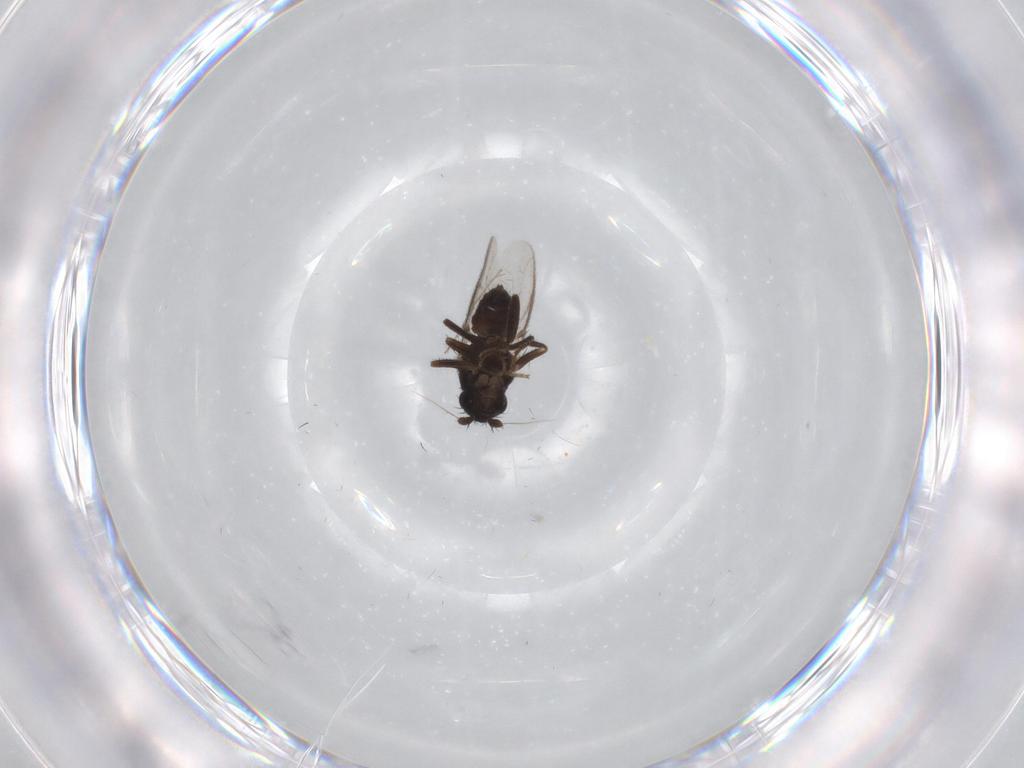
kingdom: Animalia
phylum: Arthropoda
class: Insecta
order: Diptera
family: Sphaeroceridae
